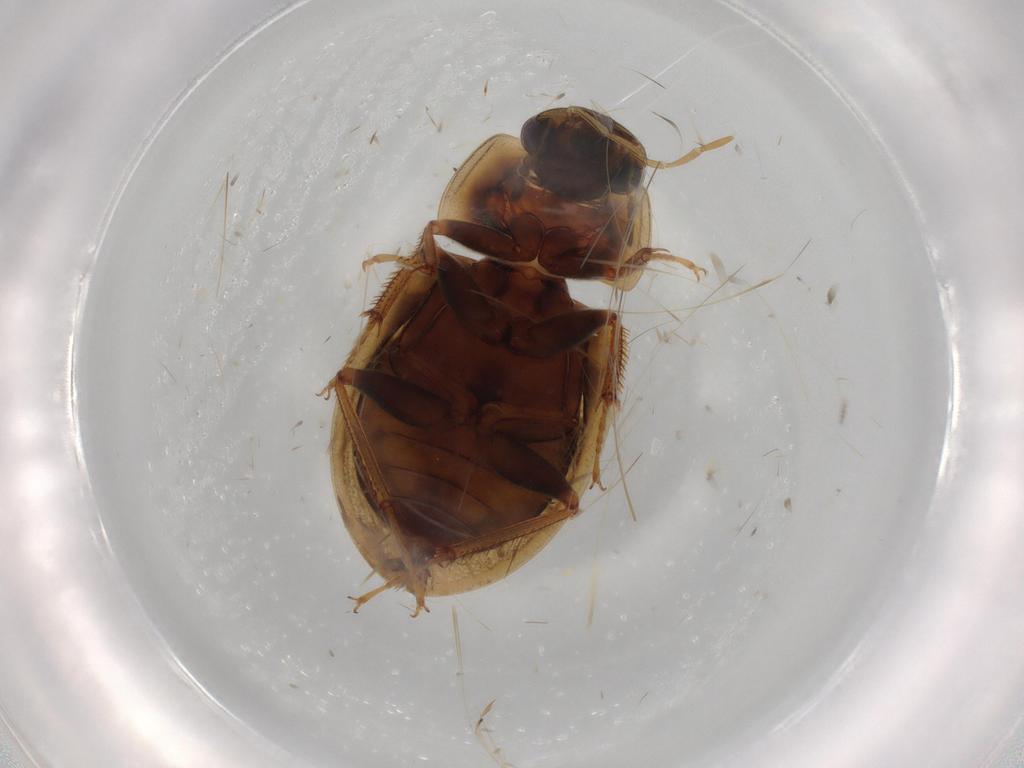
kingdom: Animalia
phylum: Arthropoda
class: Insecta
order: Coleoptera
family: Hydrophilidae
